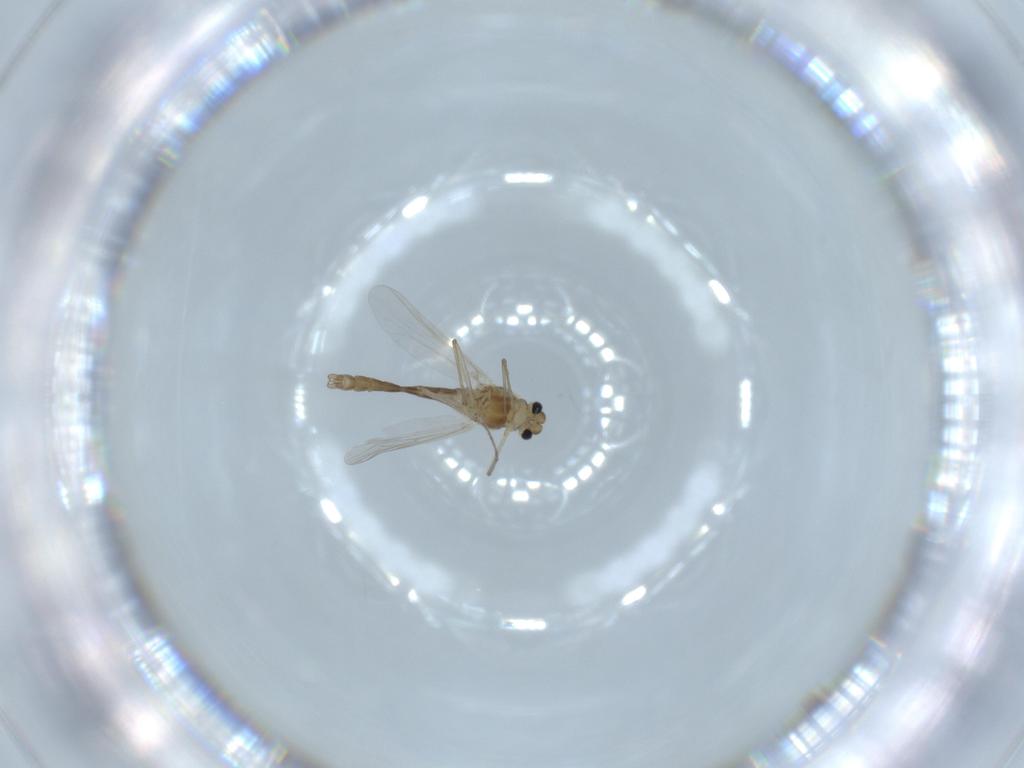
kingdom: Animalia
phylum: Arthropoda
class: Insecta
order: Diptera
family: Chironomidae
